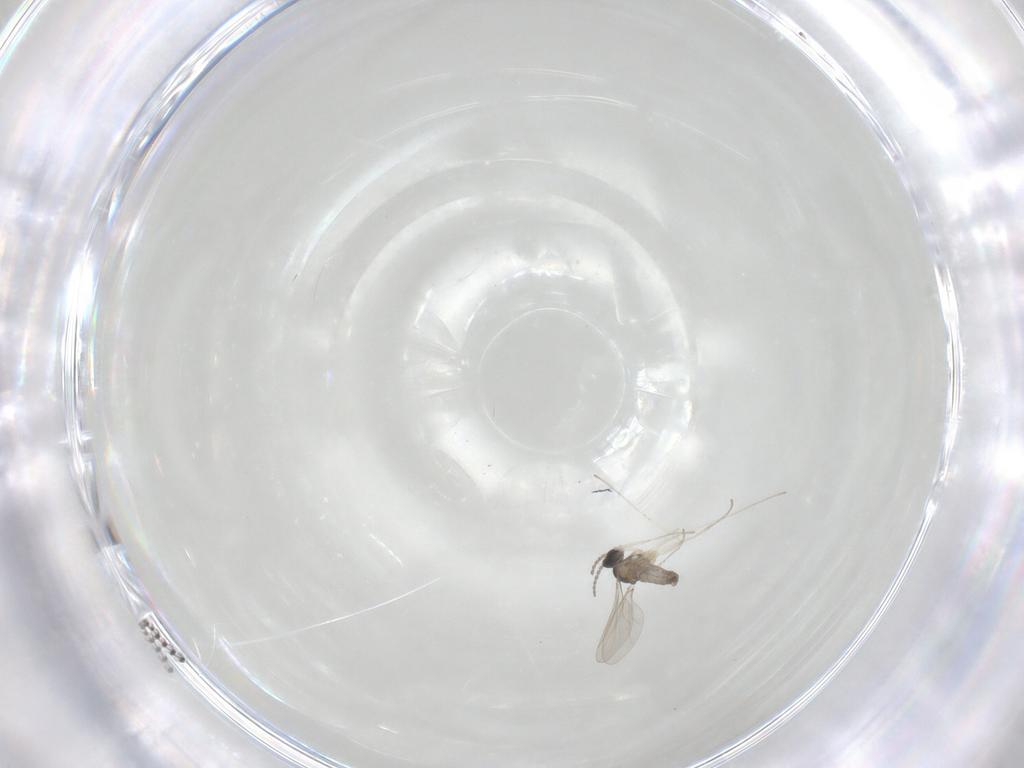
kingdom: Animalia
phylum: Arthropoda
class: Insecta
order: Diptera
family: Cecidomyiidae
